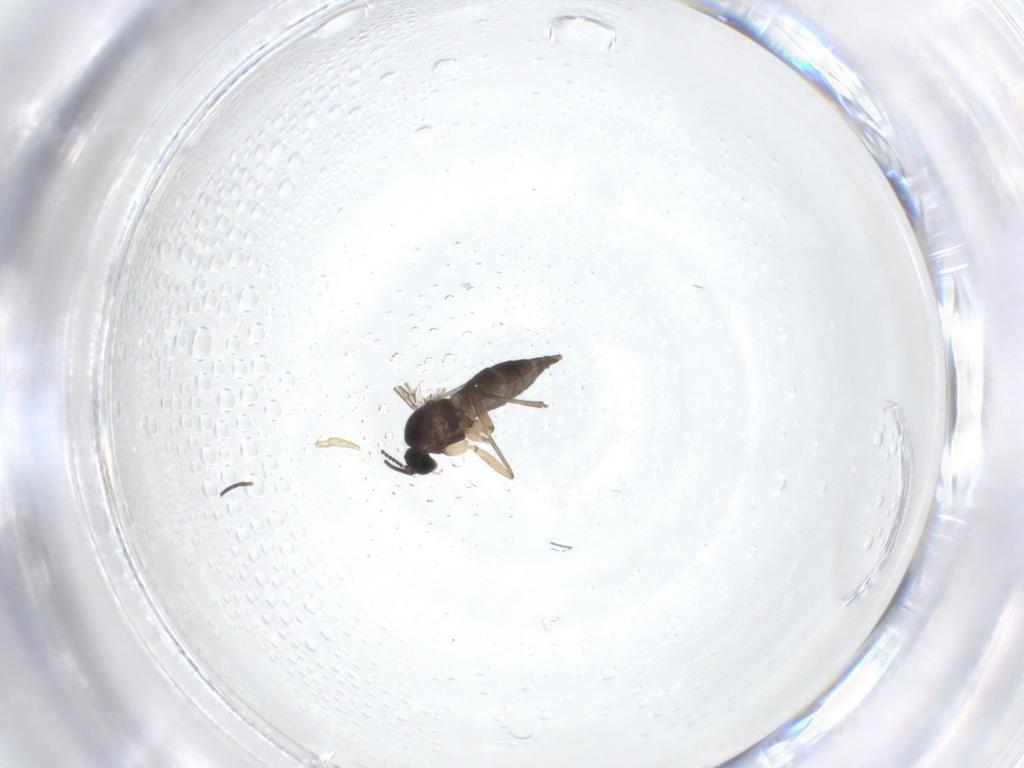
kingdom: Animalia
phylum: Arthropoda
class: Insecta
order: Diptera
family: Sciaridae
